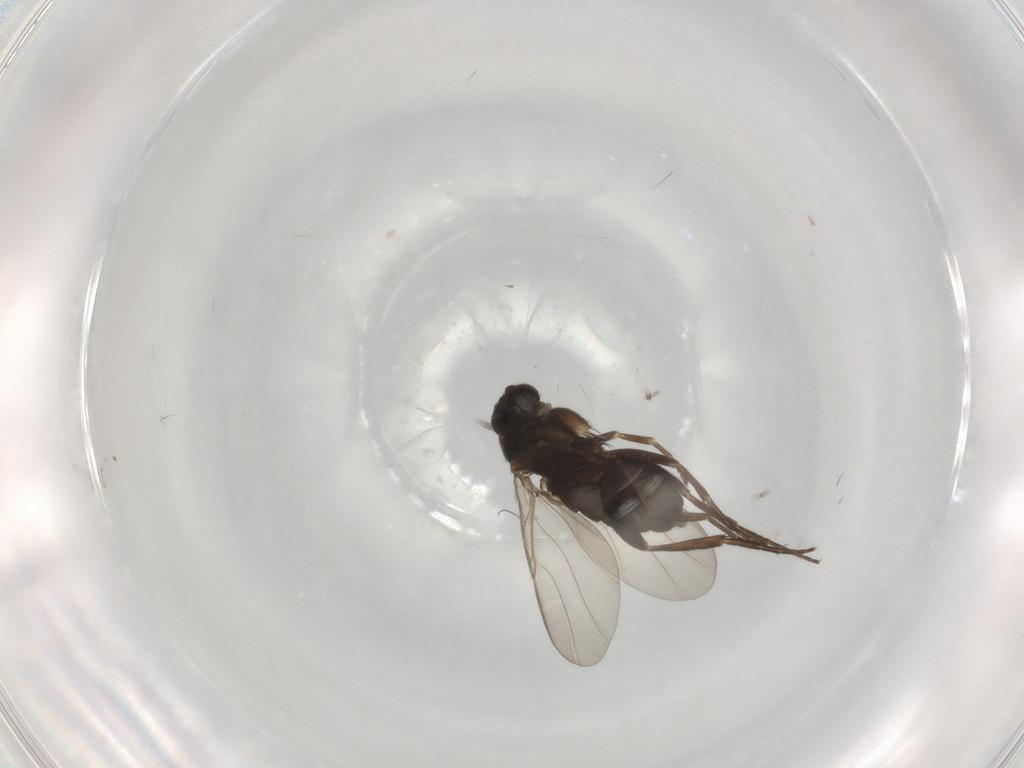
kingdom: Animalia
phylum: Arthropoda
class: Insecta
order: Diptera
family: Phoridae
